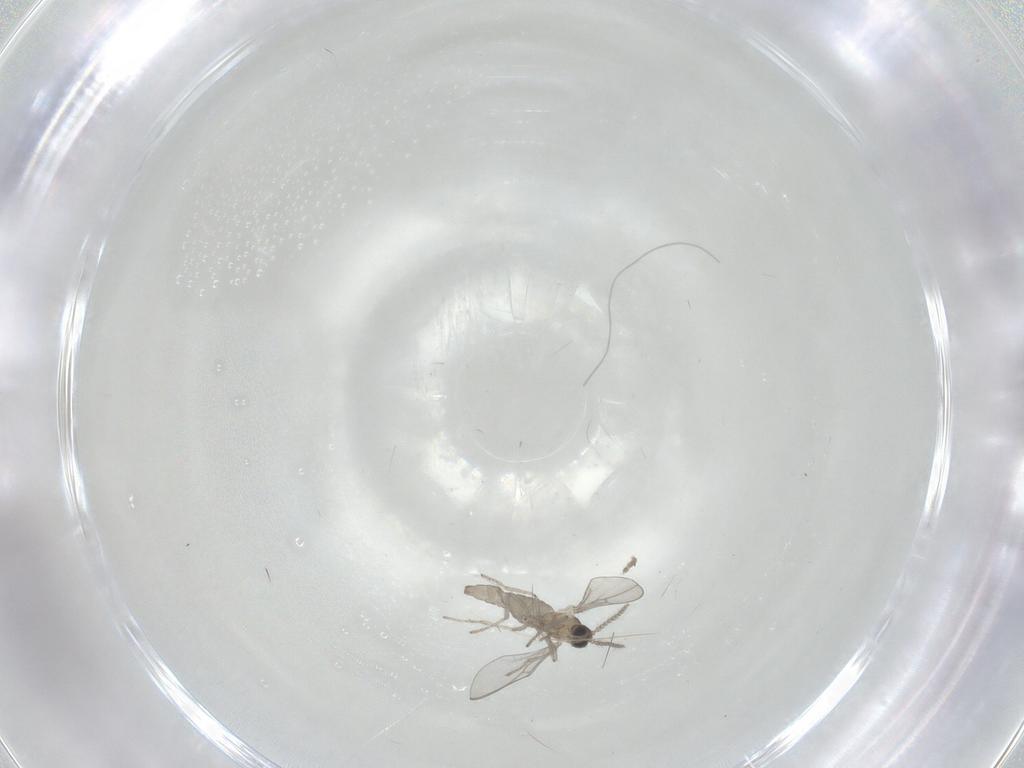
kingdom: Animalia
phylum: Arthropoda
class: Insecta
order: Diptera
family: Cecidomyiidae
